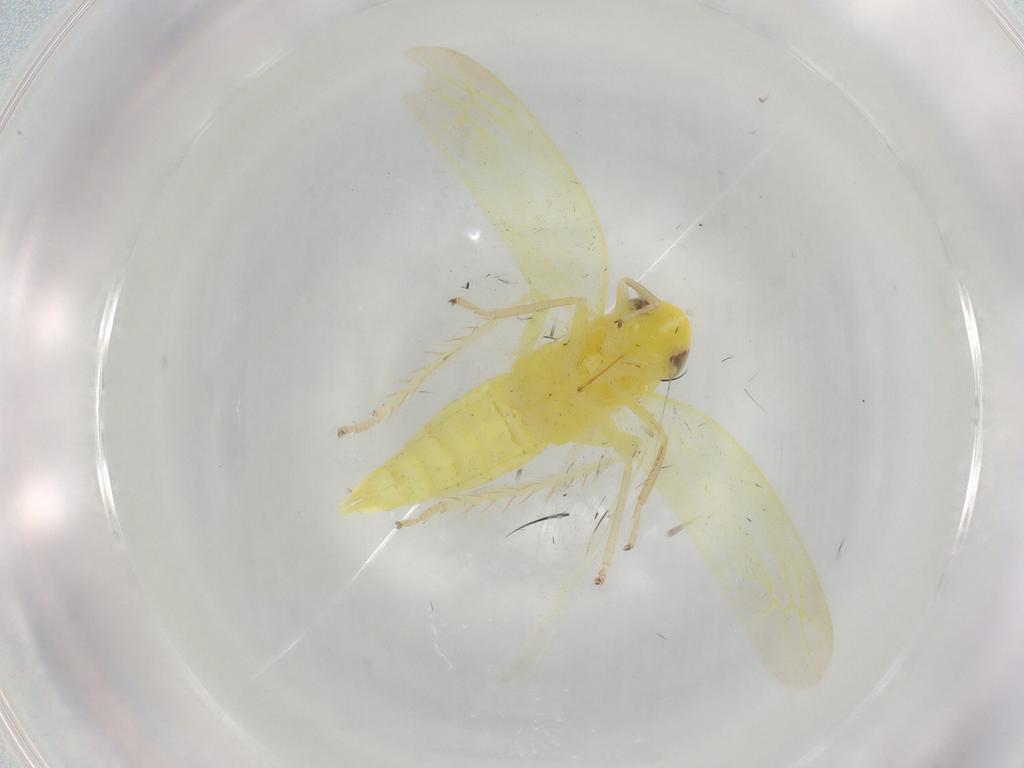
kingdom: Animalia
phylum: Arthropoda
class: Insecta
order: Hemiptera
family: Cicadellidae
